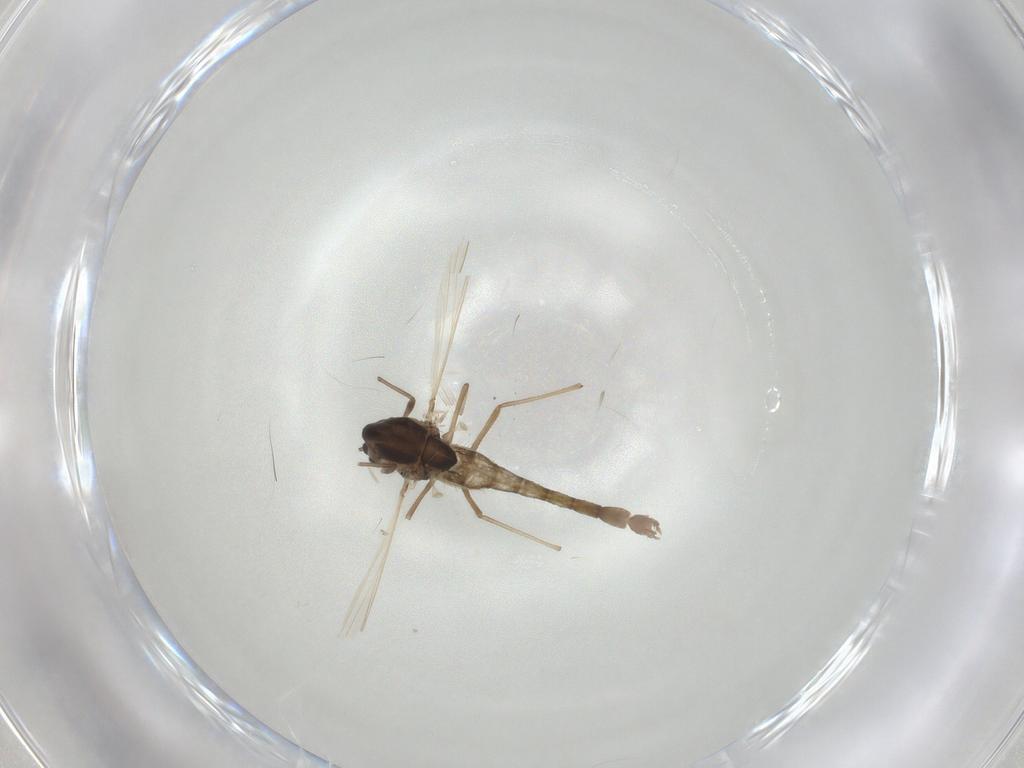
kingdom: Animalia
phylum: Arthropoda
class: Insecta
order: Diptera
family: Chironomidae
